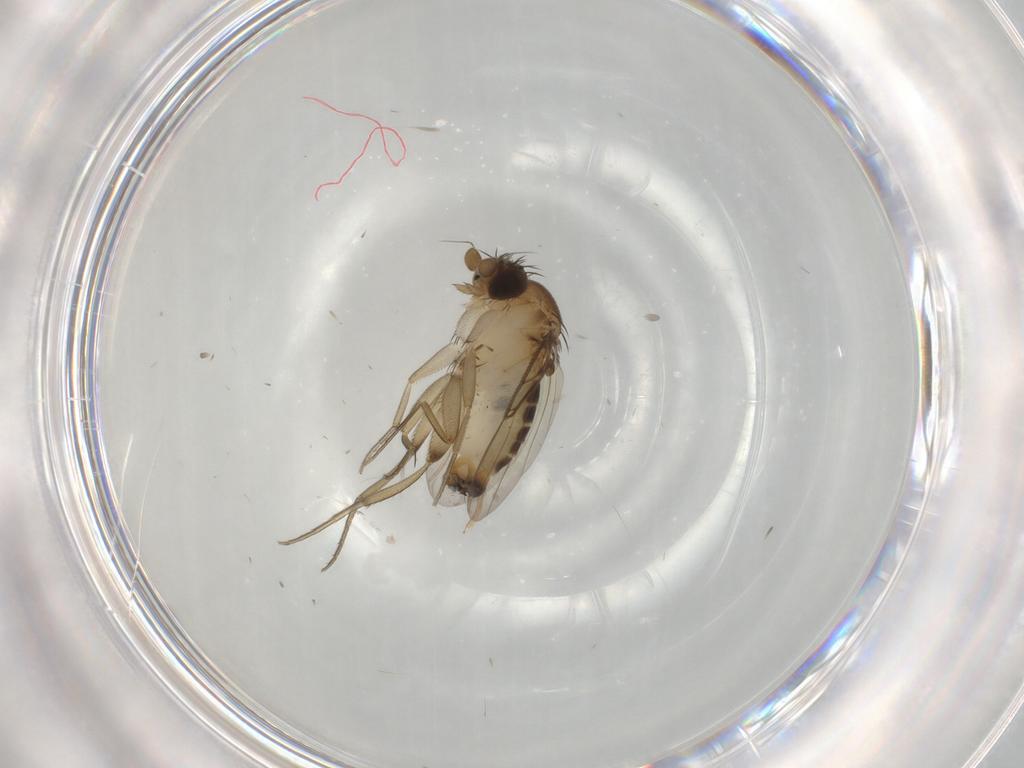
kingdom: Animalia
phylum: Arthropoda
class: Insecta
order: Diptera
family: Phoridae
